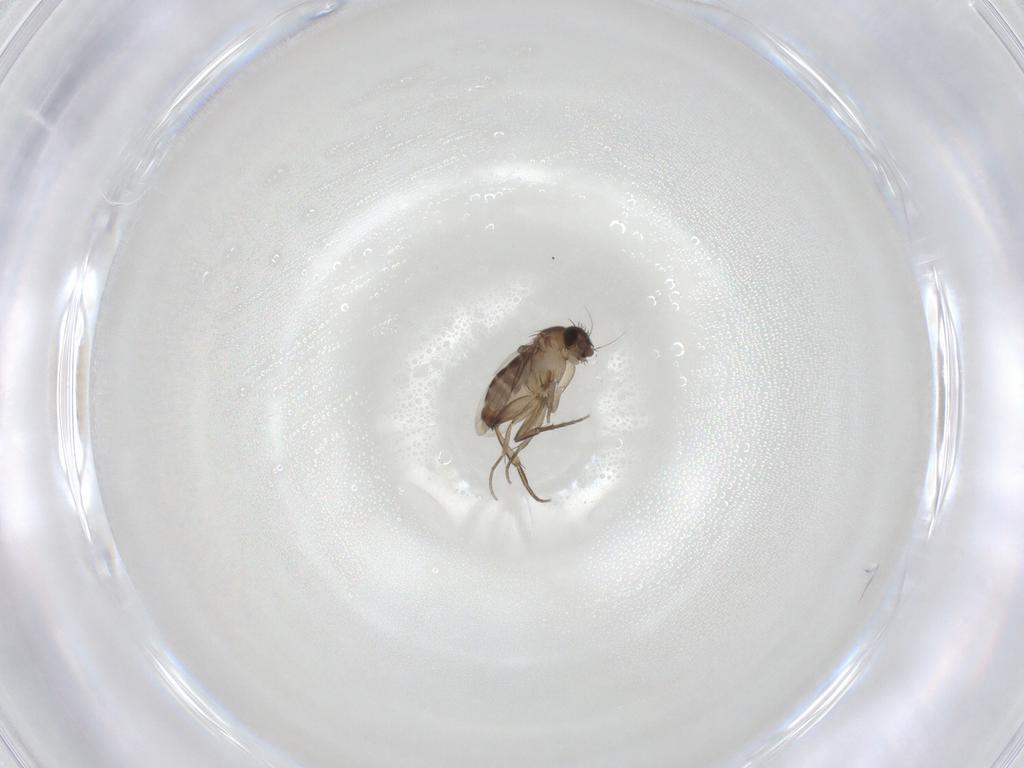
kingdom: Animalia
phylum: Arthropoda
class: Insecta
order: Diptera
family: Phoridae
